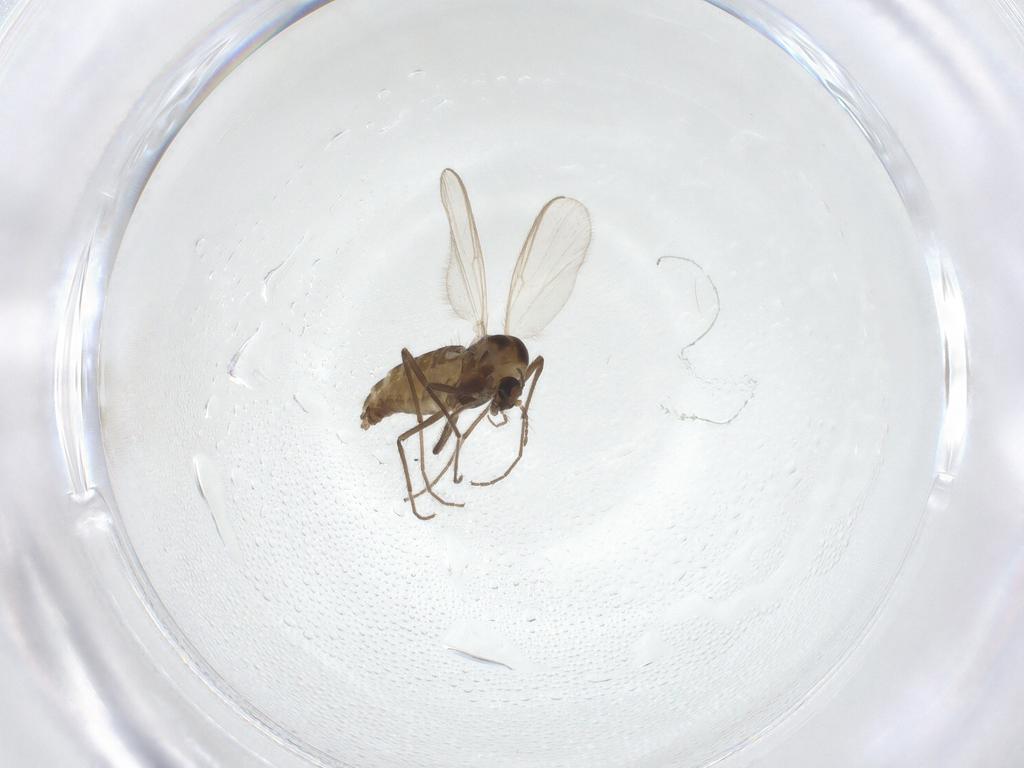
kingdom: Animalia
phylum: Arthropoda
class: Insecta
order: Diptera
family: Chironomidae
